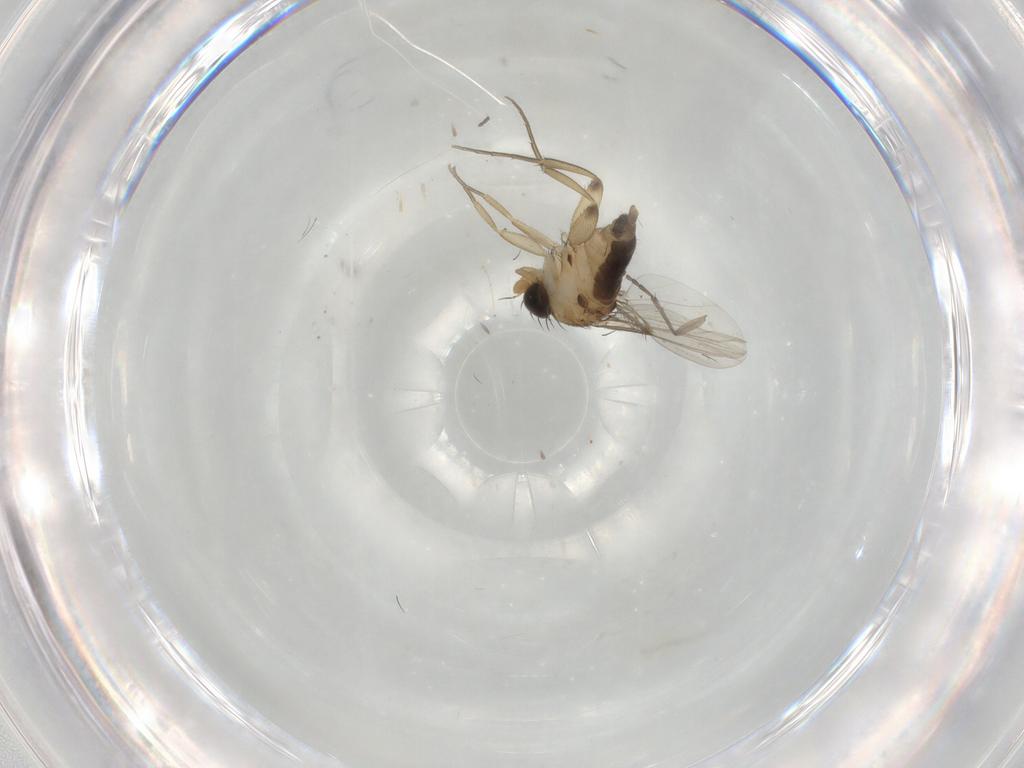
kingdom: Animalia
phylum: Arthropoda
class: Insecta
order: Diptera
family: Phoridae
